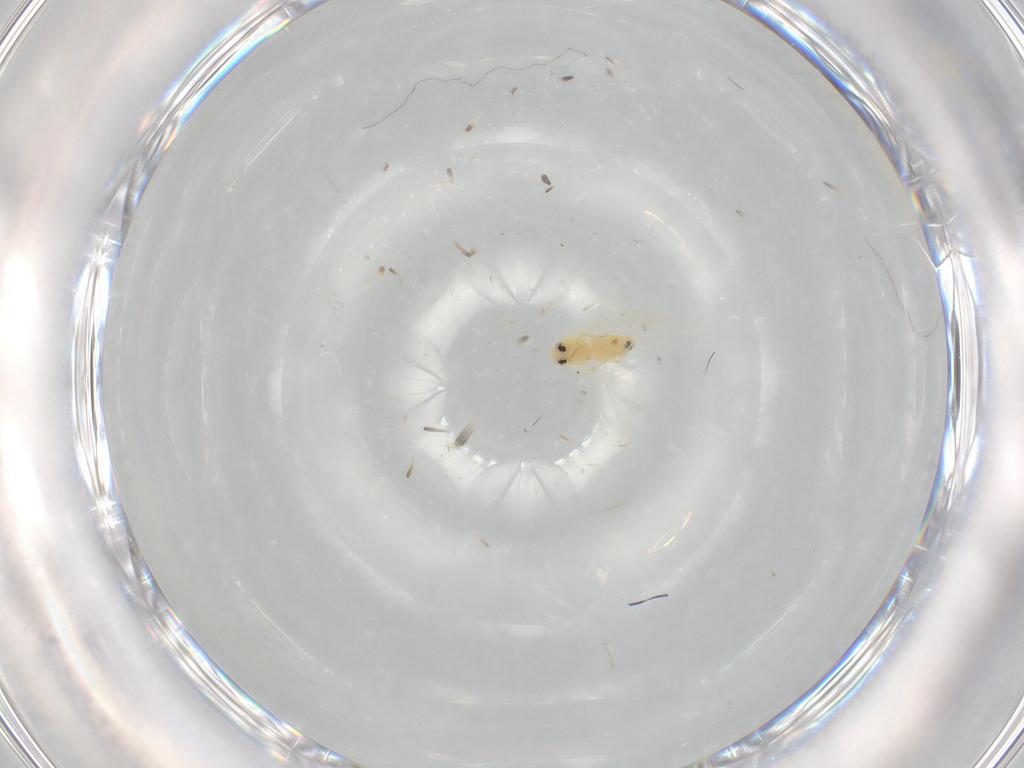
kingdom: Animalia
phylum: Arthropoda
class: Insecta
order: Hemiptera
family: Aleyrodidae
